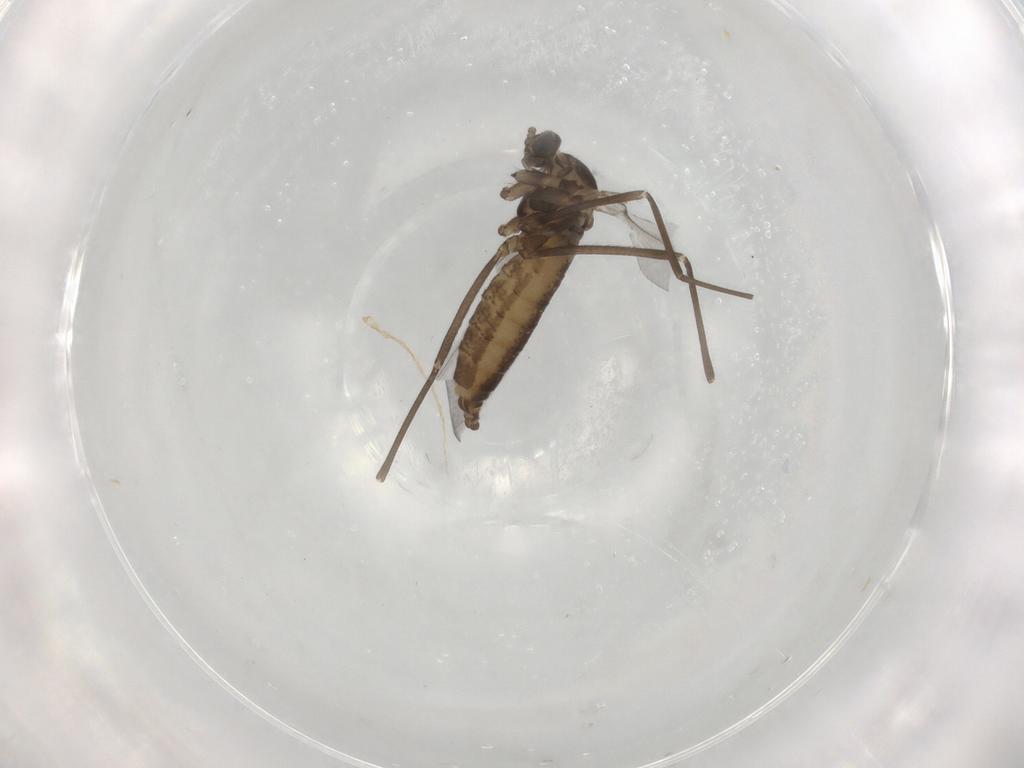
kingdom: Animalia
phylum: Arthropoda
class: Insecta
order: Diptera
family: Cecidomyiidae
